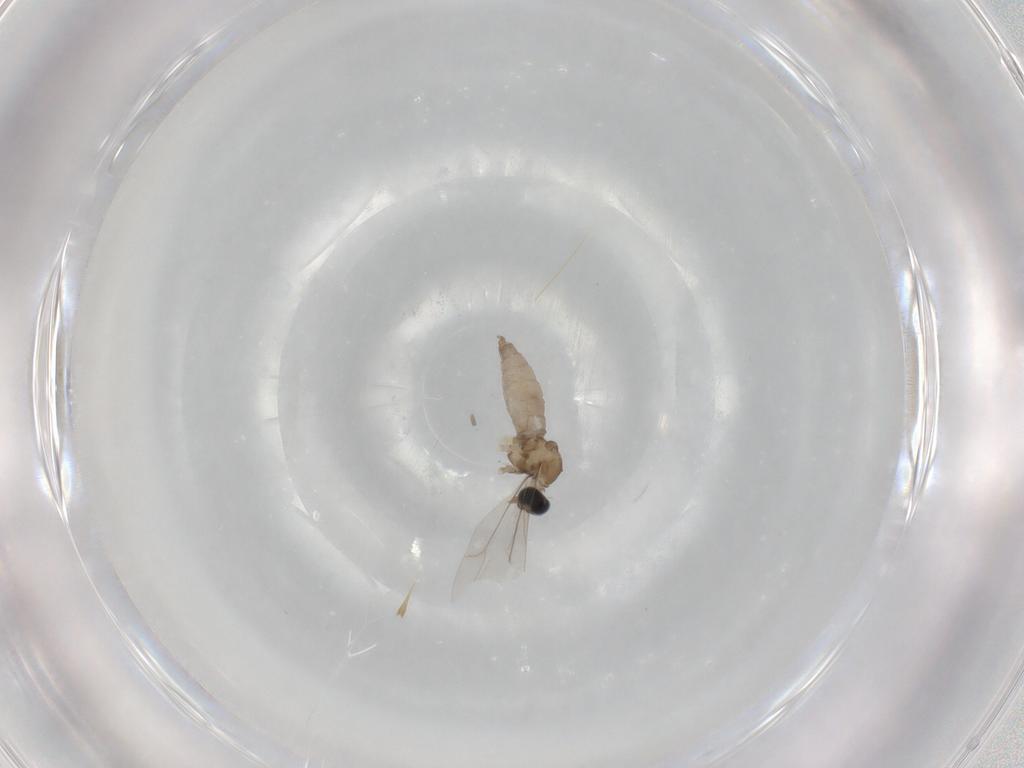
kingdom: Animalia
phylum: Arthropoda
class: Insecta
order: Diptera
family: Cecidomyiidae
